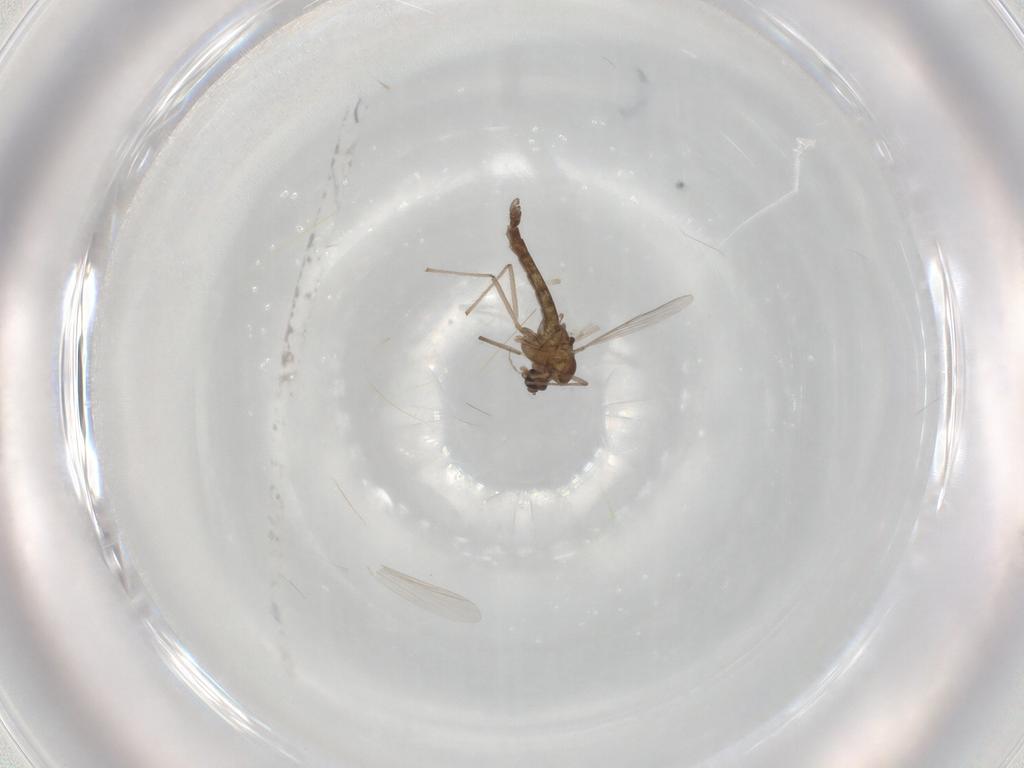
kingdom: Animalia
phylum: Arthropoda
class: Insecta
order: Diptera
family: Chironomidae
